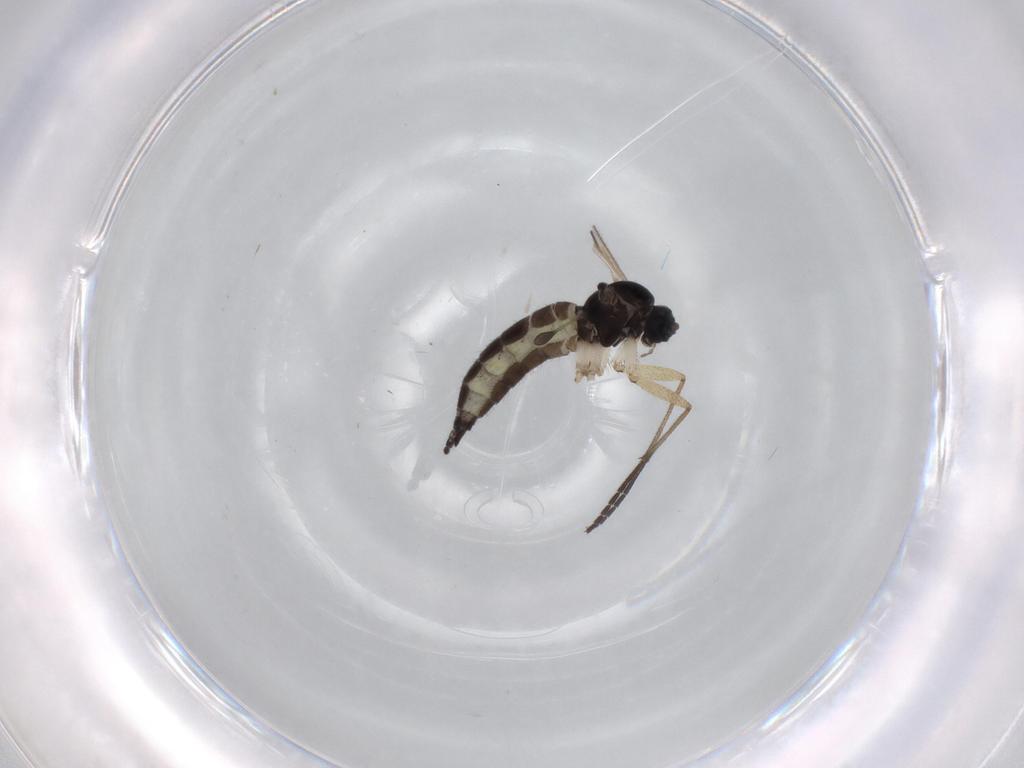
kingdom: Animalia
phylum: Arthropoda
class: Insecta
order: Diptera
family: Sciaridae
